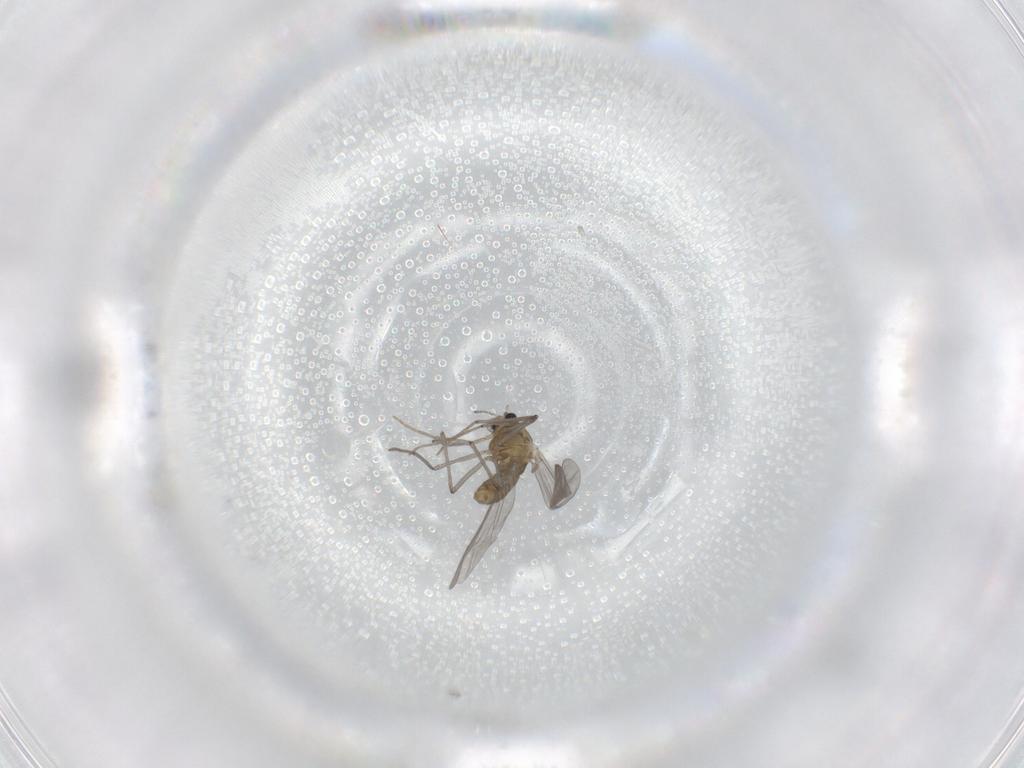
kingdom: Animalia
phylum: Arthropoda
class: Insecta
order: Diptera
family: Chironomidae
